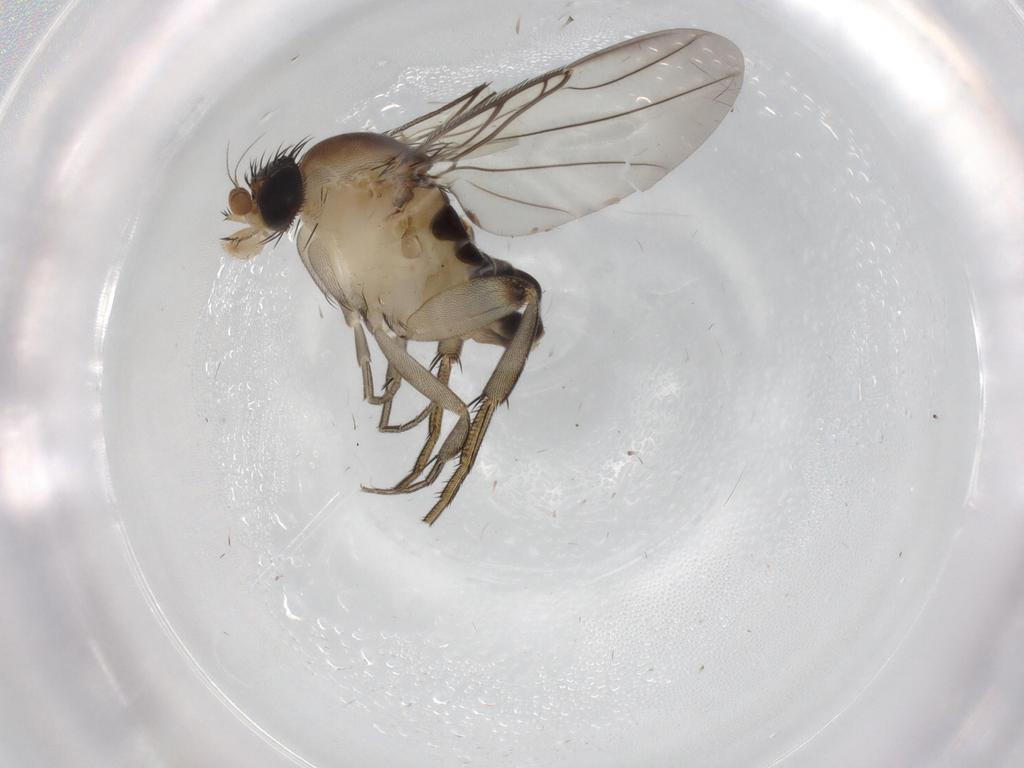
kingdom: Animalia
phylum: Arthropoda
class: Insecta
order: Diptera
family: Phoridae
